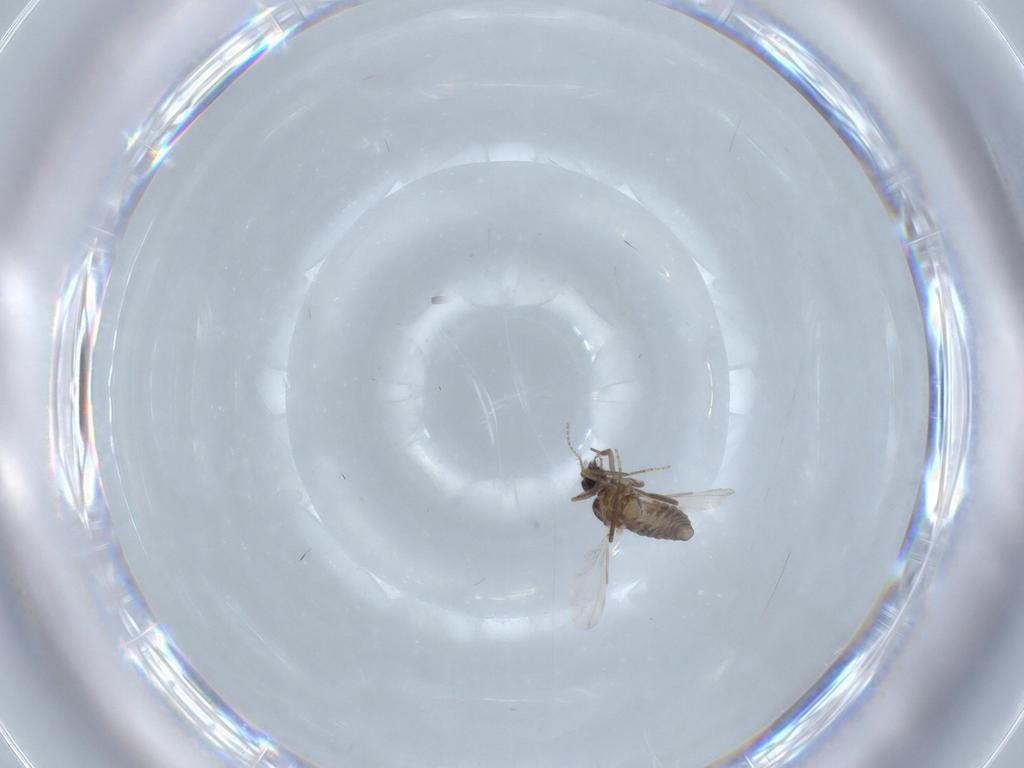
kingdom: Animalia
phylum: Arthropoda
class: Insecta
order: Diptera
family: Ceratopogonidae
